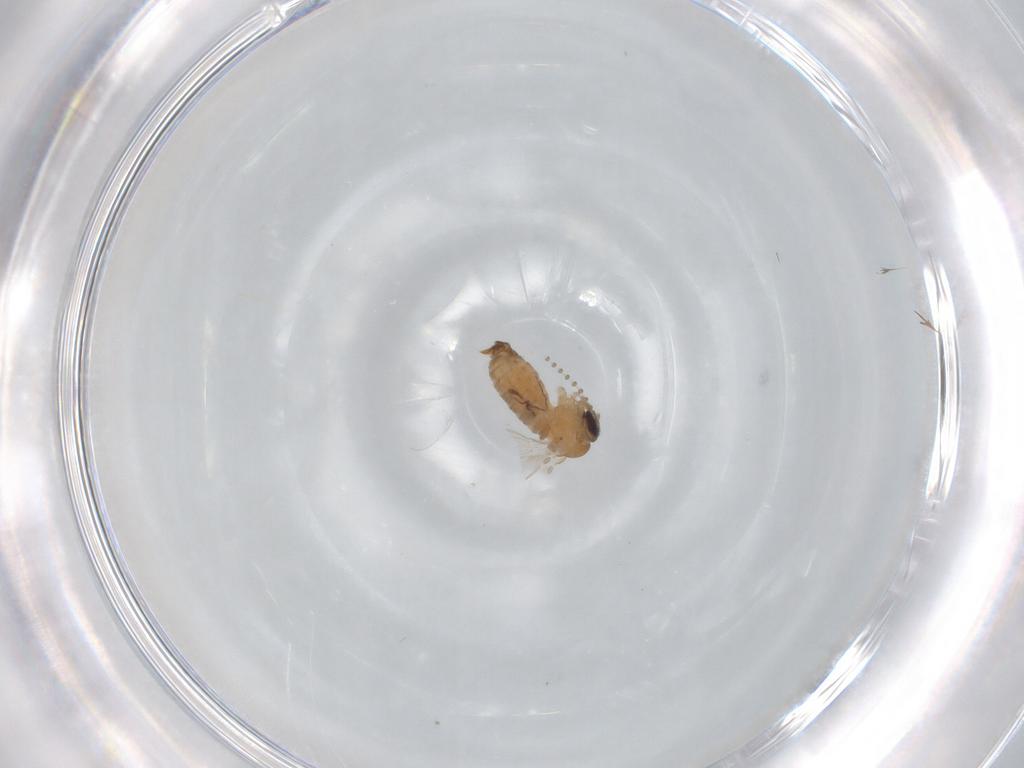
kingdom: Animalia
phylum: Arthropoda
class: Insecta
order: Diptera
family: Psychodidae
